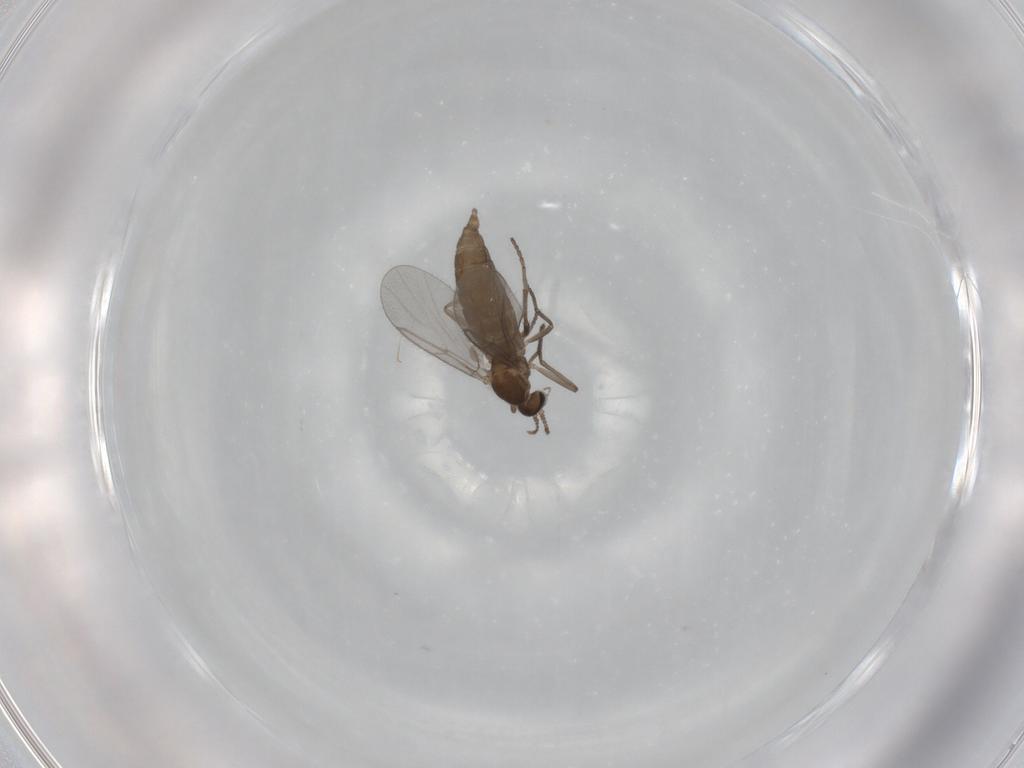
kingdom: Animalia
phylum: Arthropoda
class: Insecta
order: Diptera
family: Cecidomyiidae
